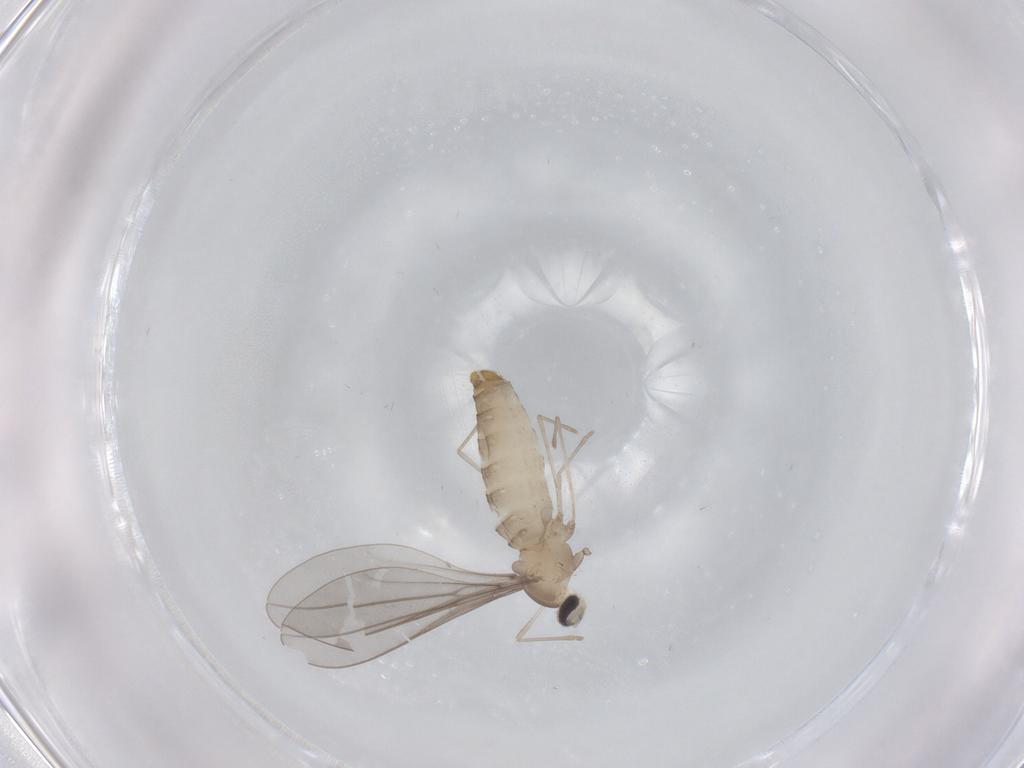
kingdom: Animalia
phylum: Arthropoda
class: Insecta
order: Diptera
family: Cecidomyiidae
